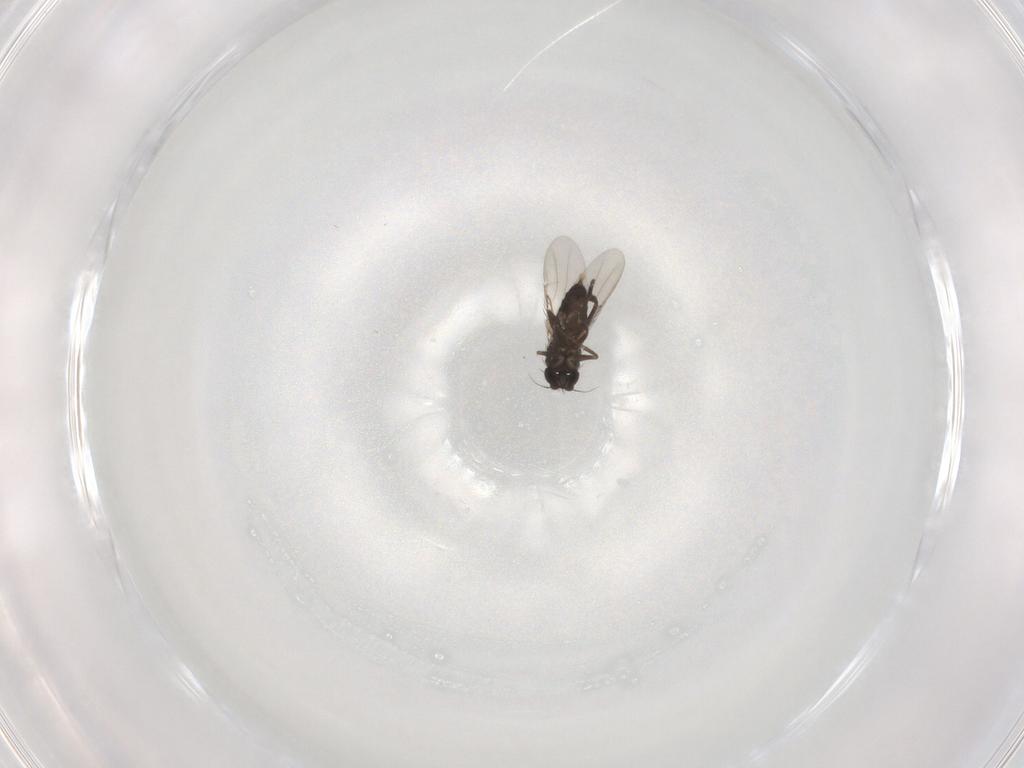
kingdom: Animalia
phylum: Arthropoda
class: Insecta
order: Diptera
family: Phoridae
